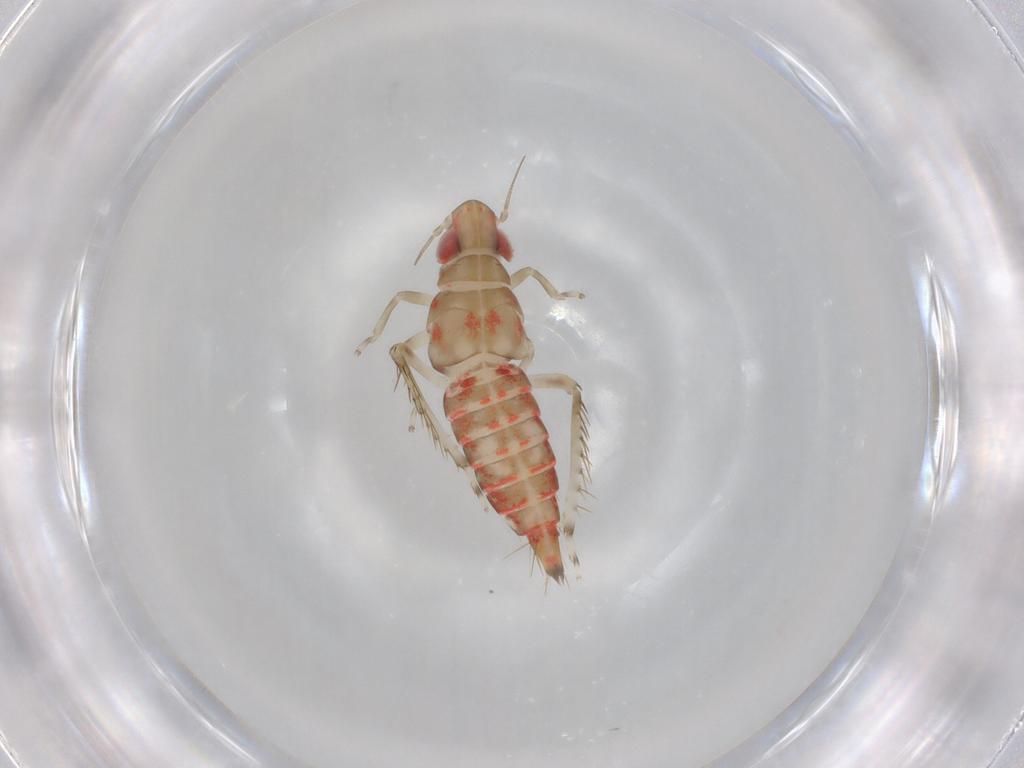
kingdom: Animalia
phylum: Arthropoda
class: Insecta
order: Hemiptera
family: Cicadellidae
